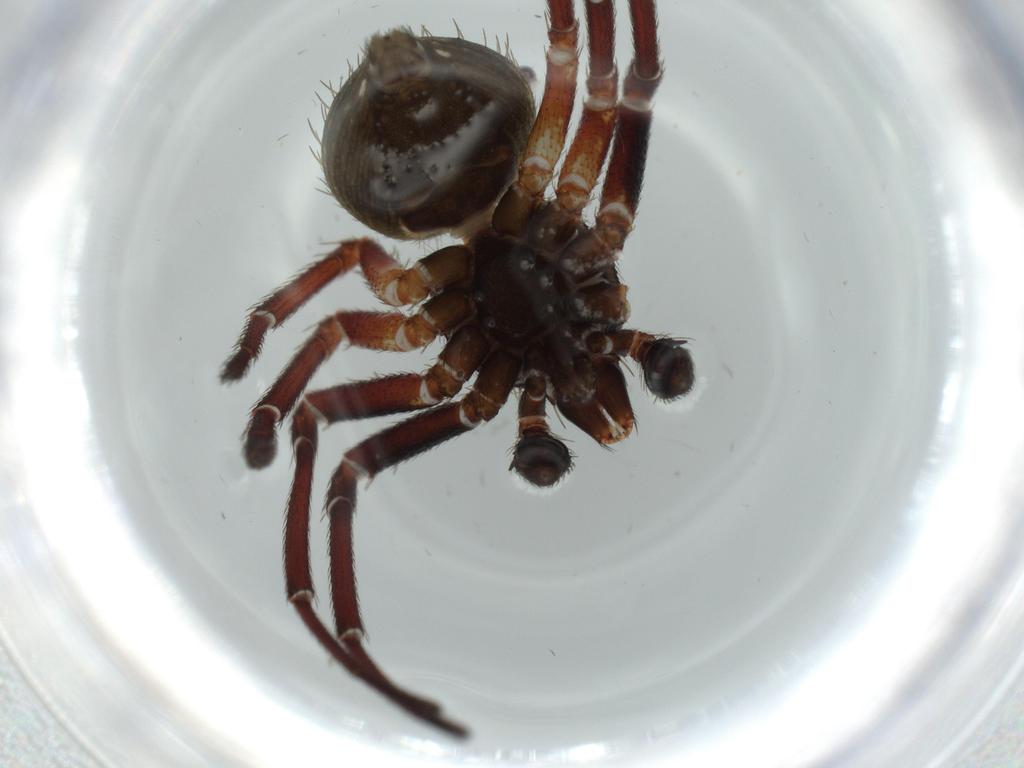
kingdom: Animalia
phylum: Arthropoda
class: Arachnida
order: Araneae
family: Thomisidae
